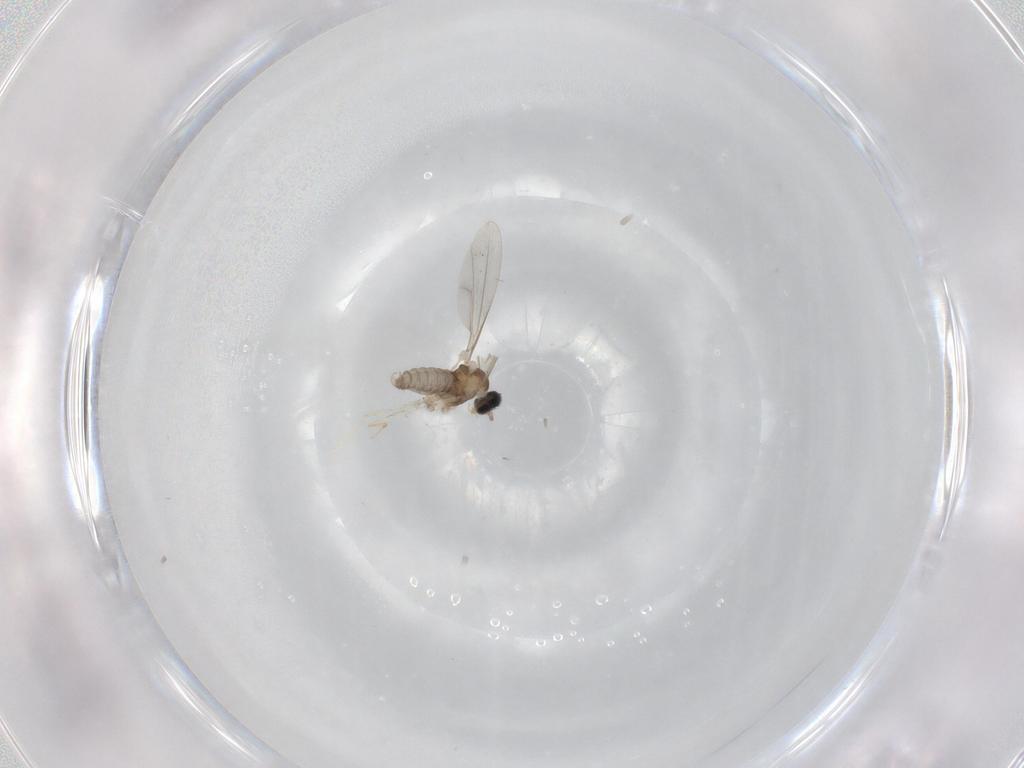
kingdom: Animalia
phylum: Arthropoda
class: Insecta
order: Diptera
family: Cecidomyiidae
